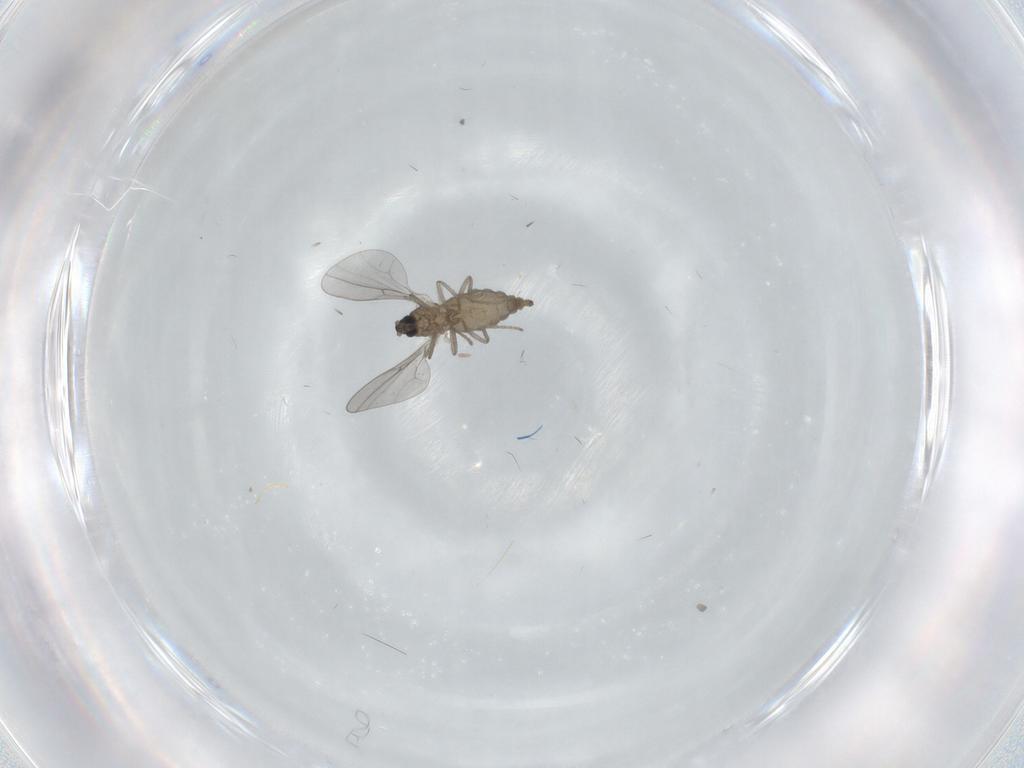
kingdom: Animalia
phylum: Arthropoda
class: Insecta
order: Diptera
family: Cecidomyiidae
